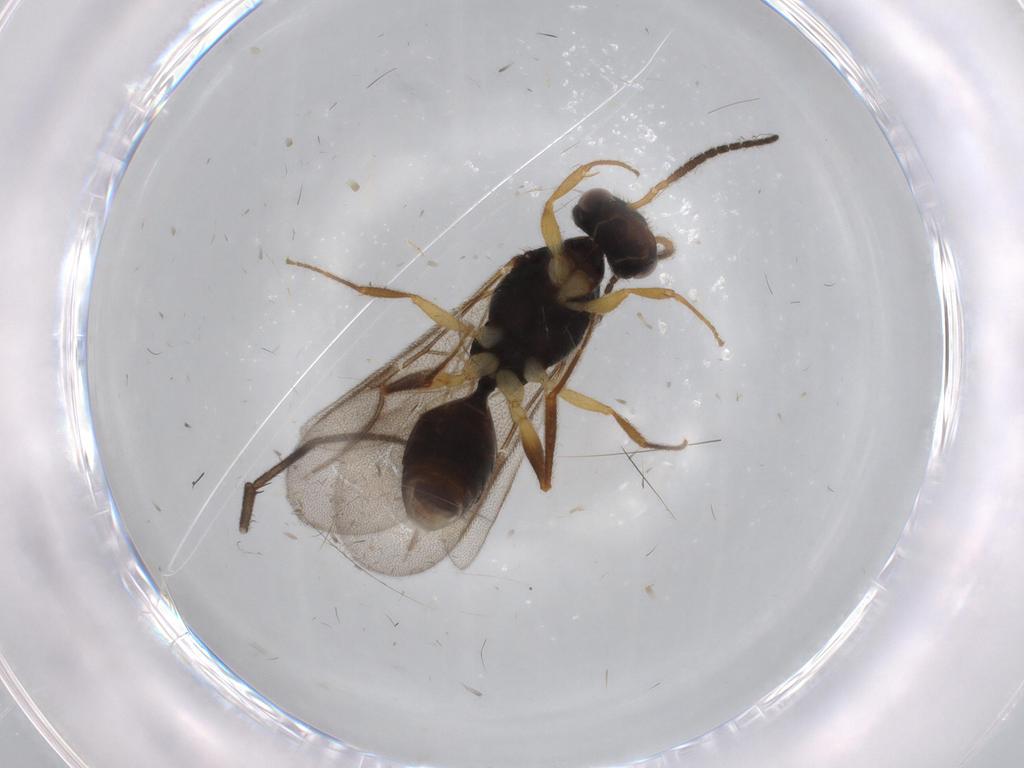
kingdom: Animalia
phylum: Arthropoda
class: Insecta
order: Hymenoptera
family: Bethylidae
